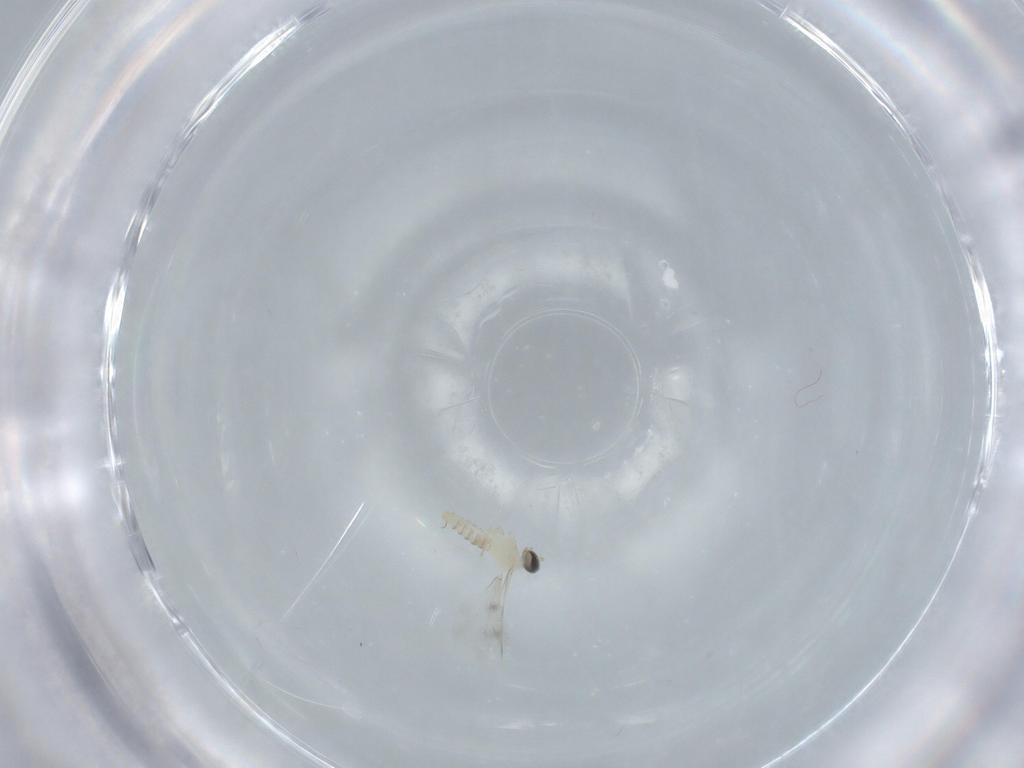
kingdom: Animalia
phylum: Arthropoda
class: Insecta
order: Diptera
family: Cecidomyiidae
